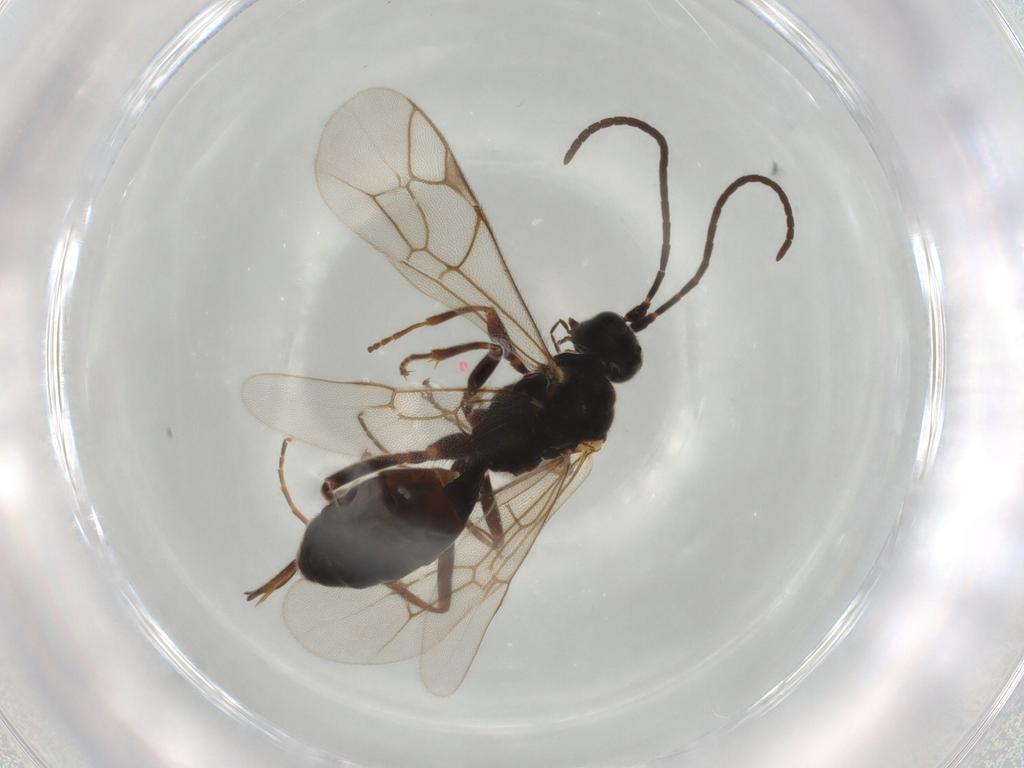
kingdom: Animalia
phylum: Arthropoda
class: Insecta
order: Hymenoptera
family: Ichneumonidae
